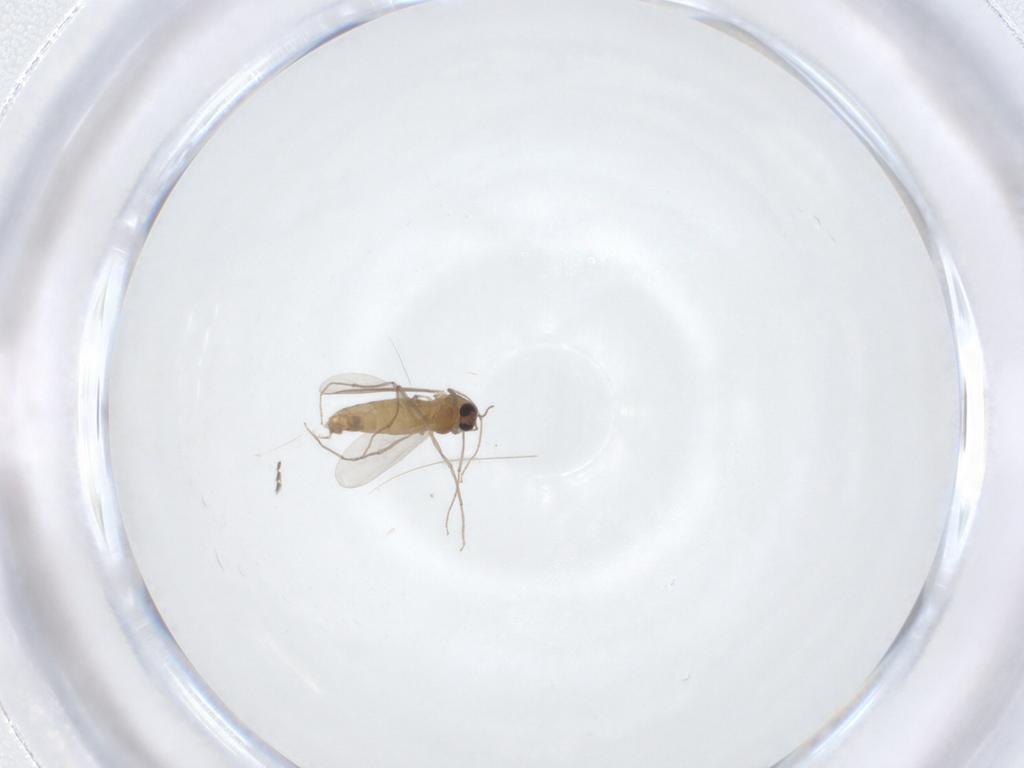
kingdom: Animalia
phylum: Arthropoda
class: Insecta
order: Diptera
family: Chironomidae
